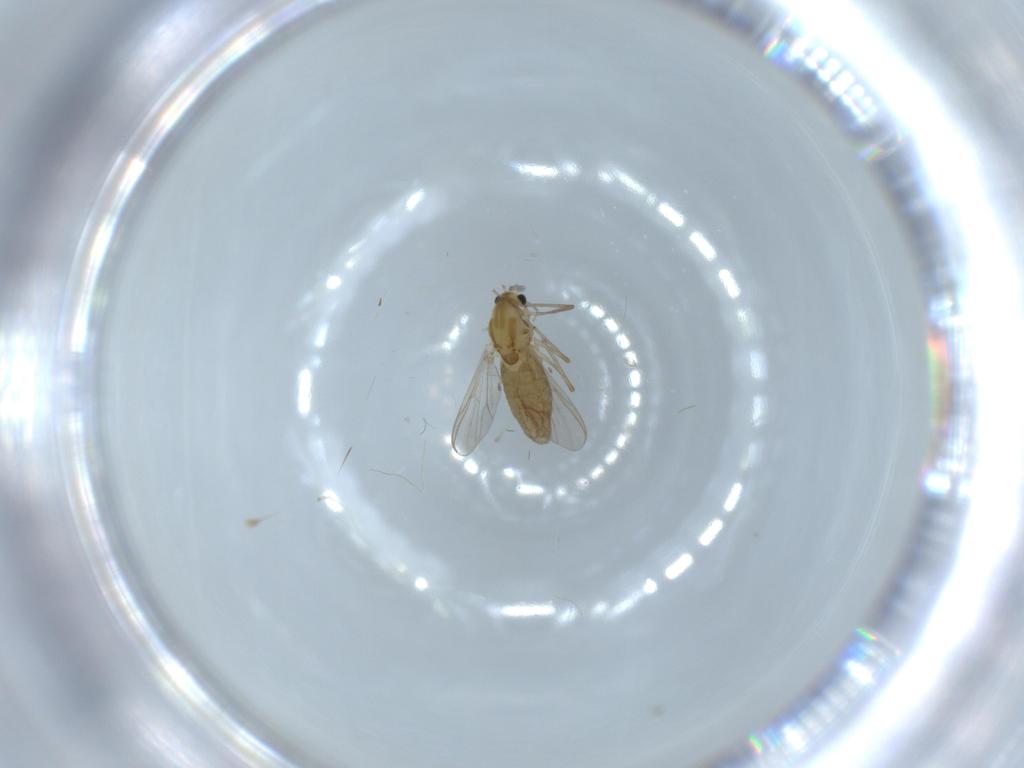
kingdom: Animalia
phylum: Arthropoda
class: Insecta
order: Diptera
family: Chironomidae
